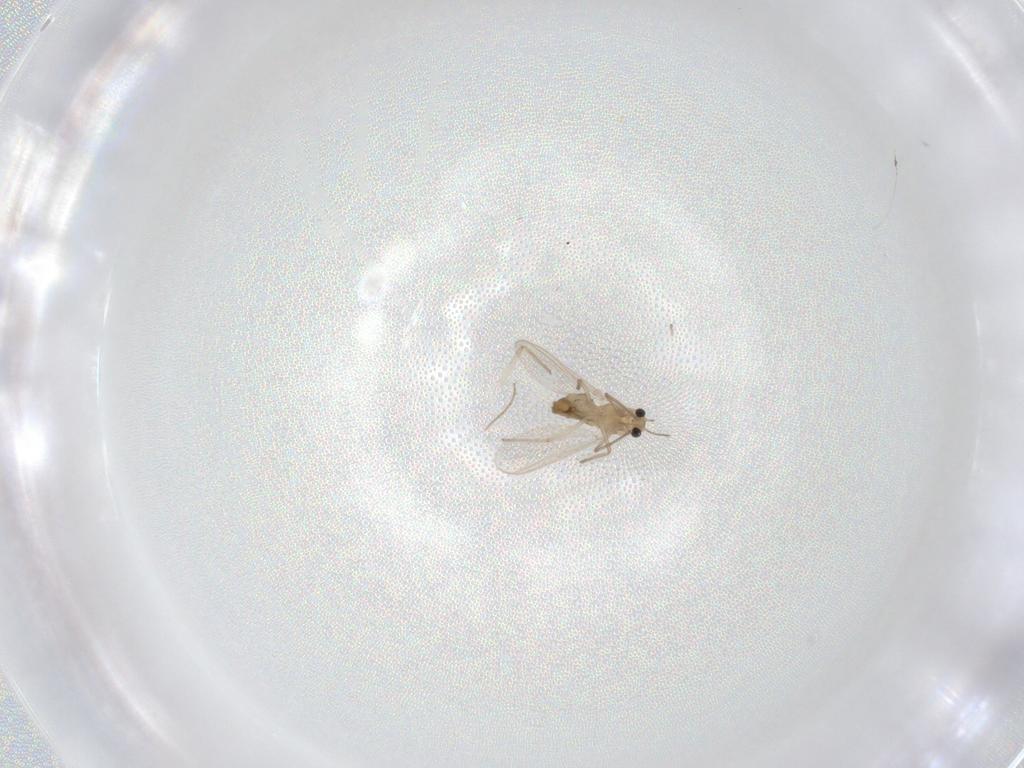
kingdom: Animalia
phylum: Arthropoda
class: Insecta
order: Diptera
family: Chironomidae
